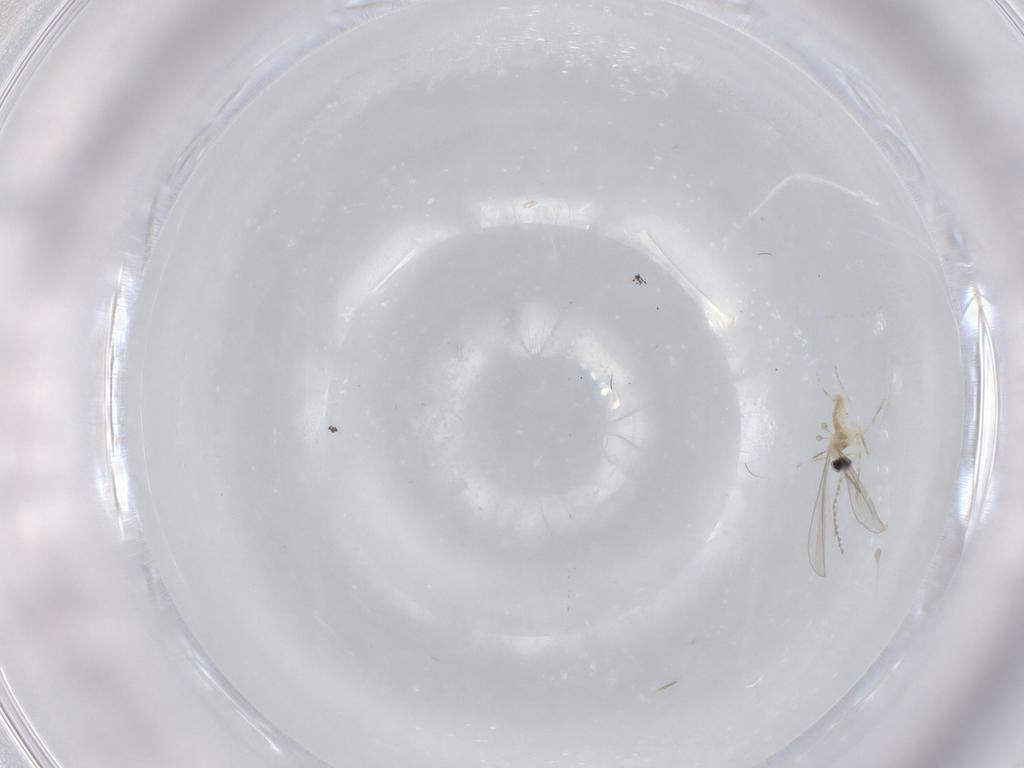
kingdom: Animalia
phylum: Arthropoda
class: Insecta
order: Diptera
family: Cecidomyiidae
